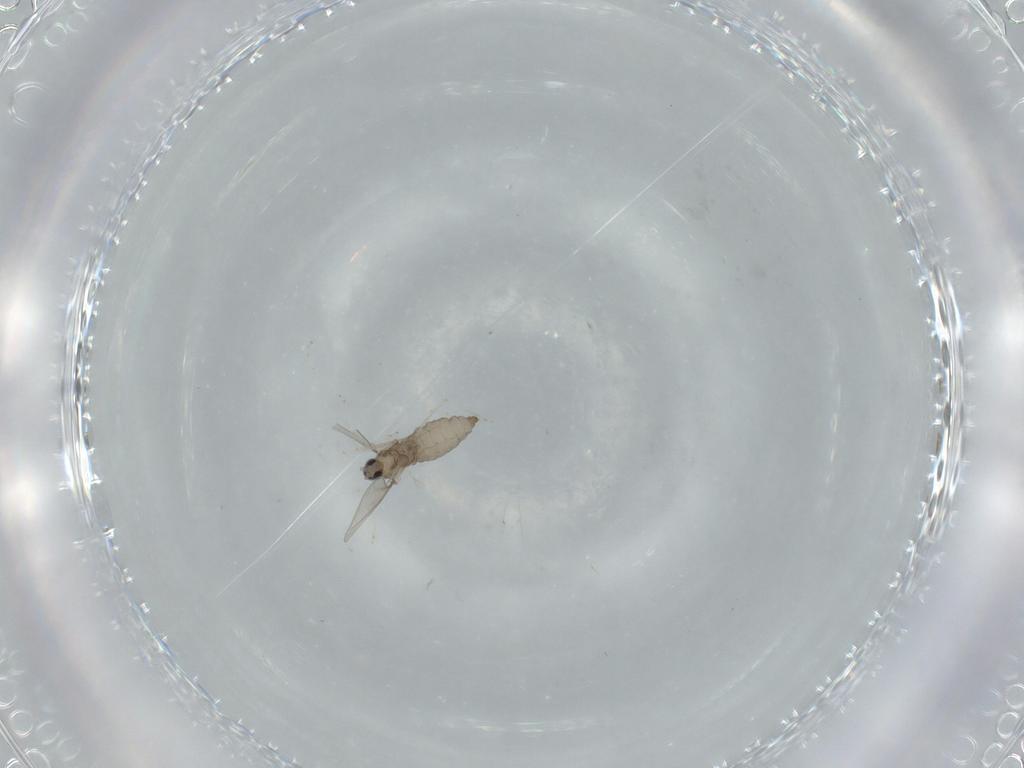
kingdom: Animalia
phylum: Arthropoda
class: Insecta
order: Diptera
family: Cecidomyiidae
